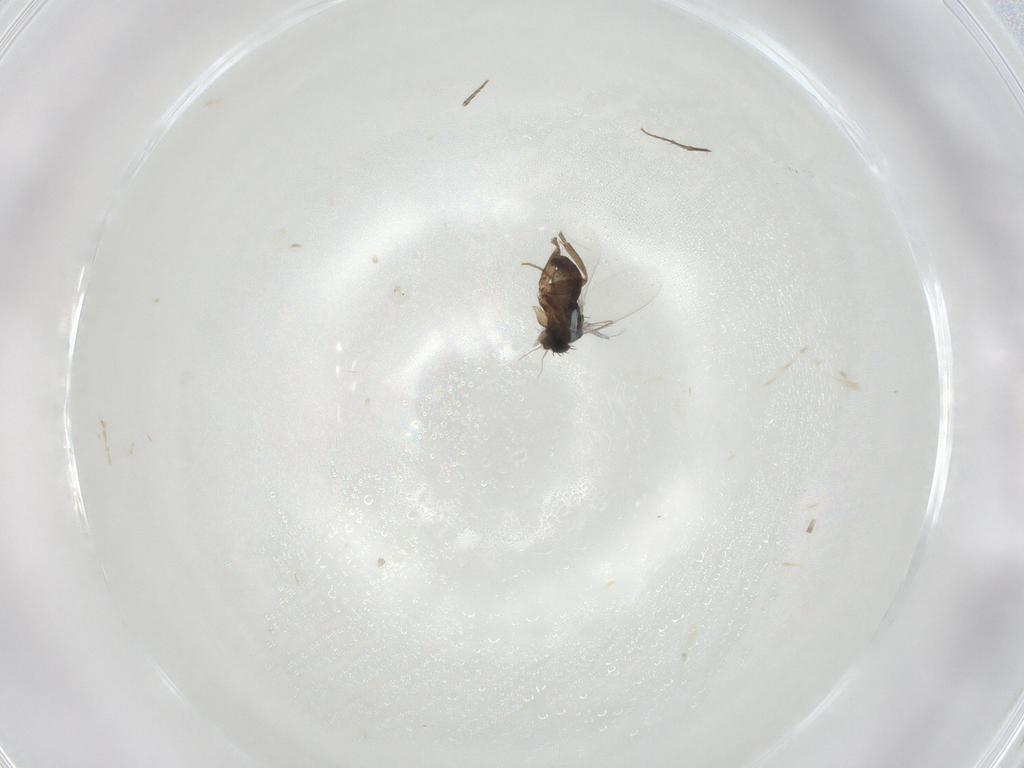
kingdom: Animalia
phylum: Arthropoda
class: Insecta
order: Diptera
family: Phoridae
